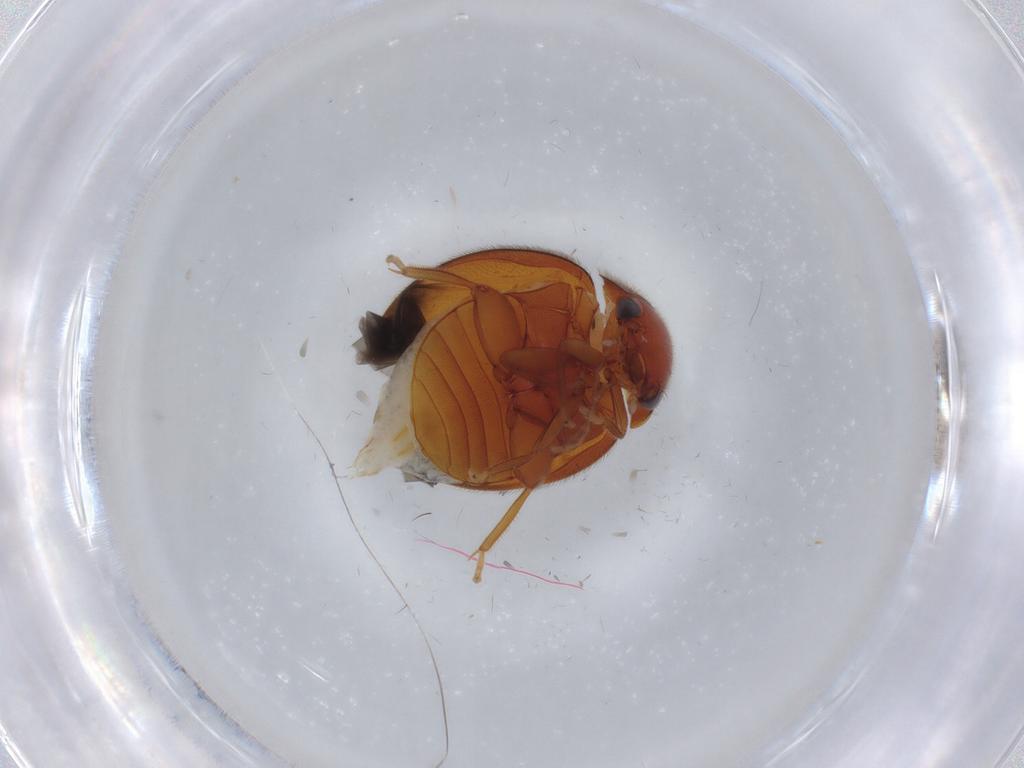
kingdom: Animalia
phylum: Arthropoda
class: Insecta
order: Coleoptera
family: Scirtidae
